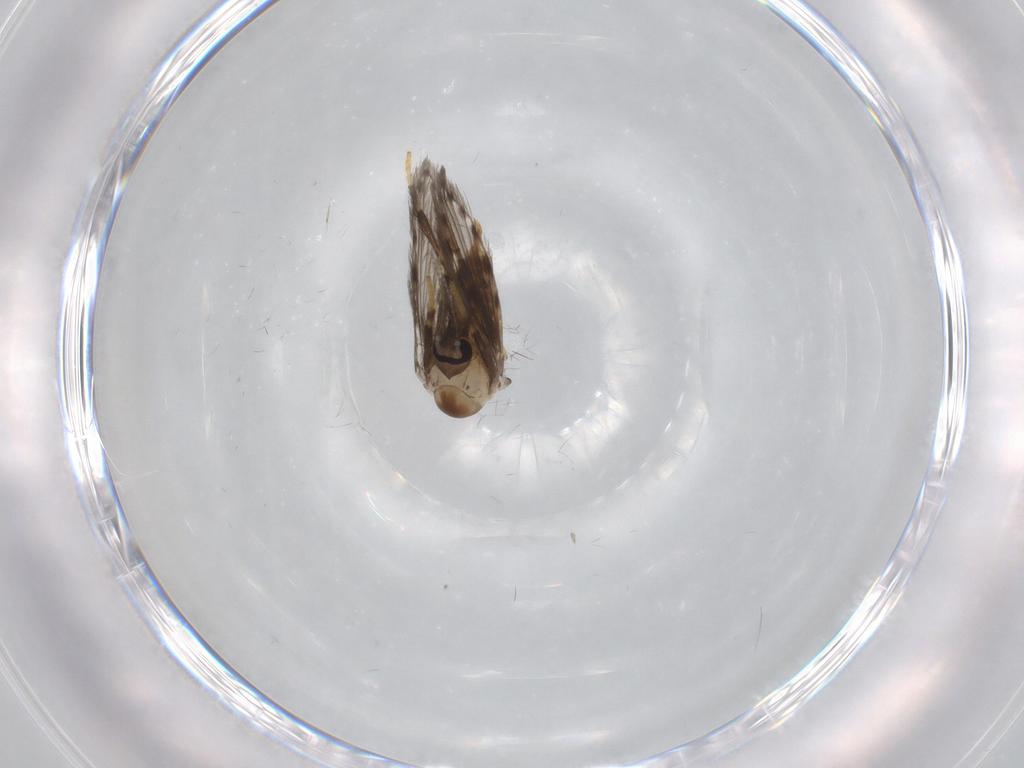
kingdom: Animalia
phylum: Arthropoda
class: Insecta
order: Diptera
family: Psychodidae
